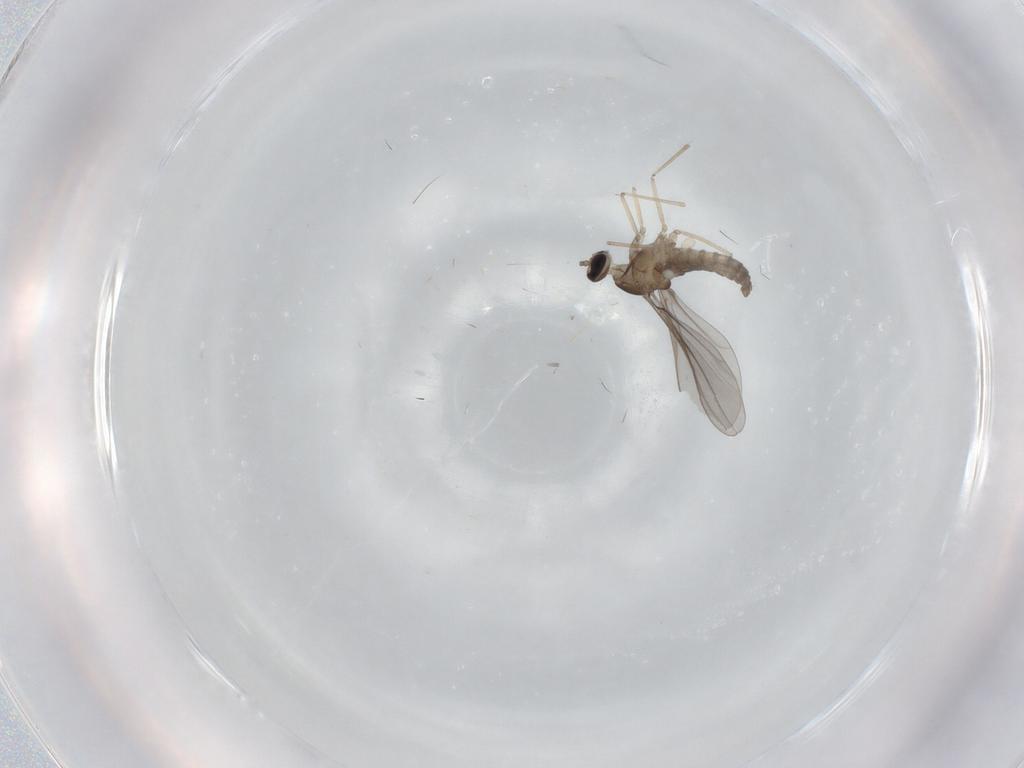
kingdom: Animalia
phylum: Arthropoda
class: Insecta
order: Diptera
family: Cecidomyiidae
